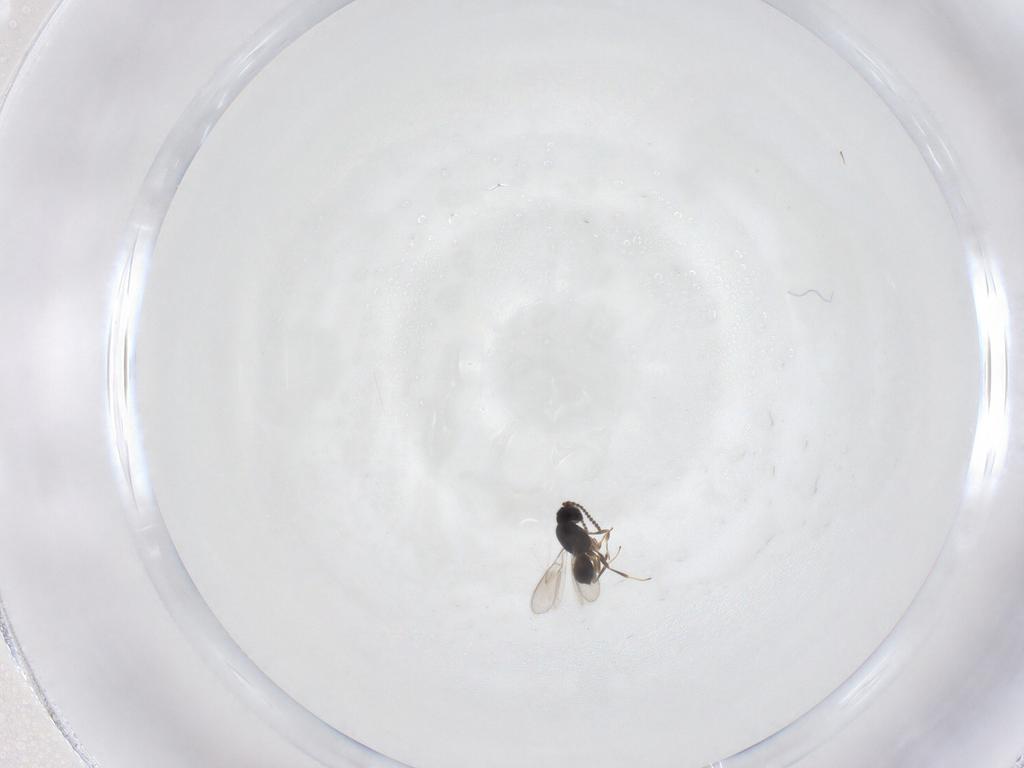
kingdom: Animalia
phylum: Arthropoda
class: Insecta
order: Hymenoptera
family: Scelionidae
